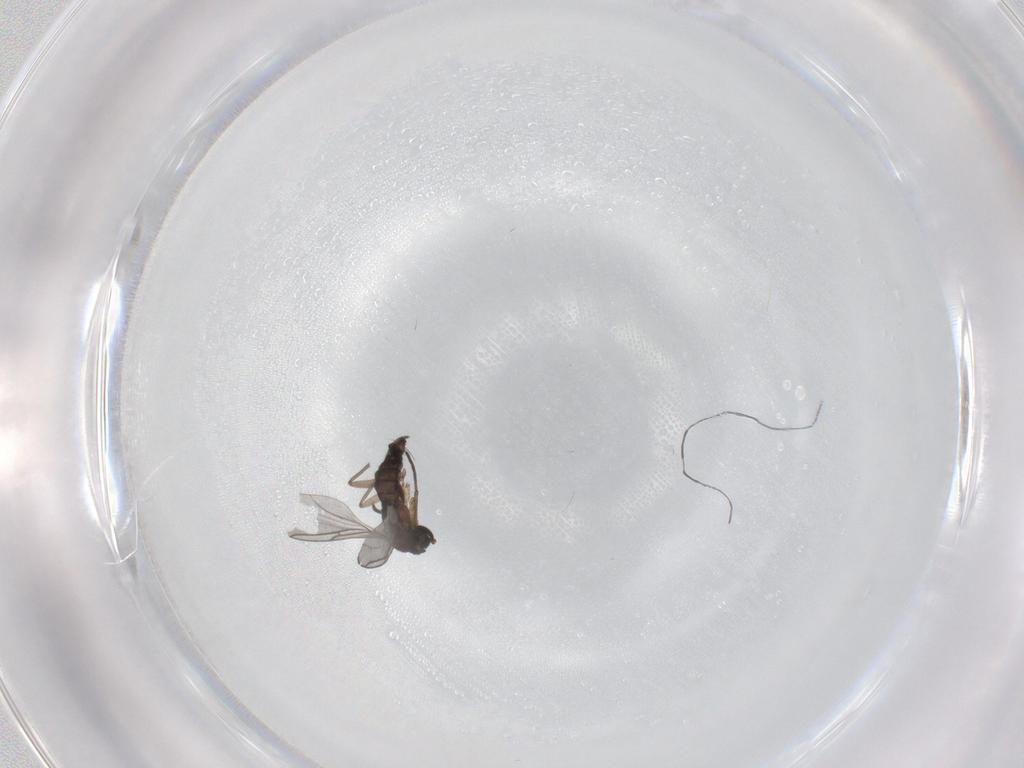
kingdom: Animalia
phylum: Arthropoda
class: Insecta
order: Diptera
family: Sciaridae
